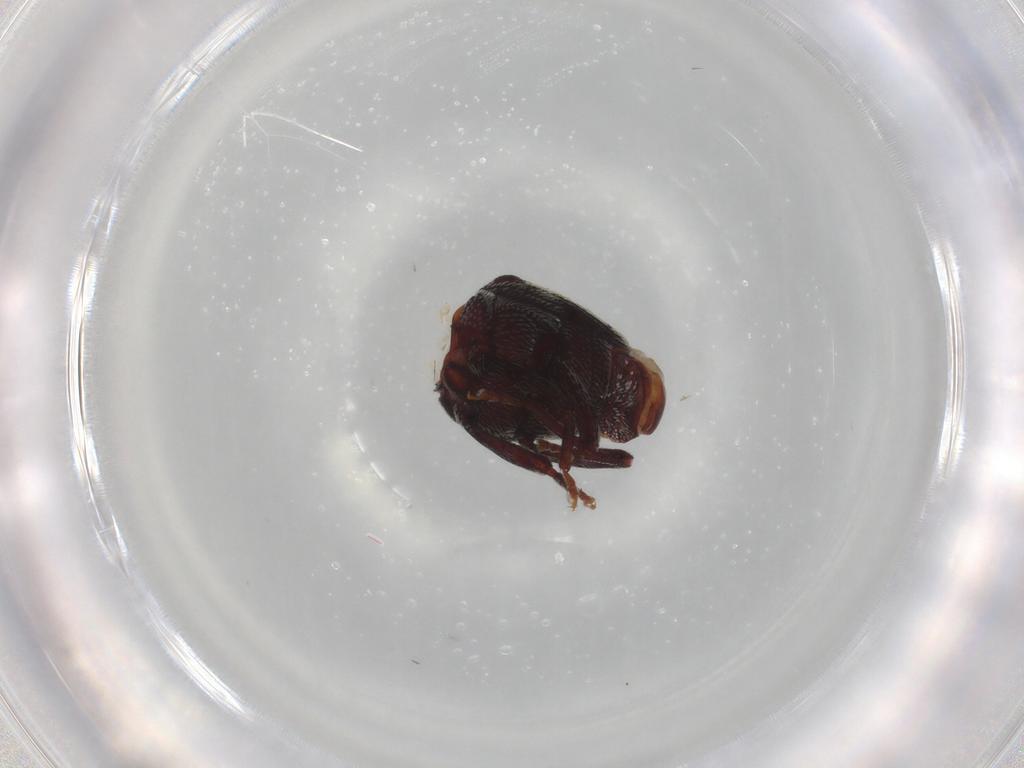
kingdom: Animalia
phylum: Arthropoda
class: Insecta
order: Coleoptera
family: Curculionidae
